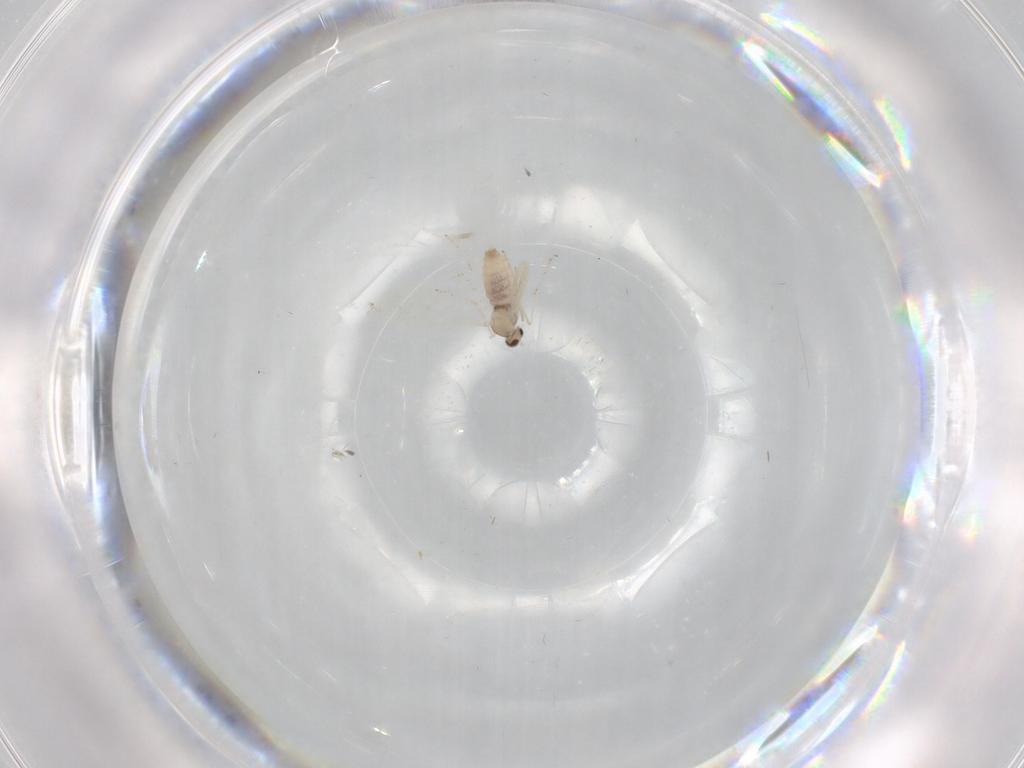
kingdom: Animalia
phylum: Arthropoda
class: Insecta
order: Diptera
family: Cecidomyiidae
